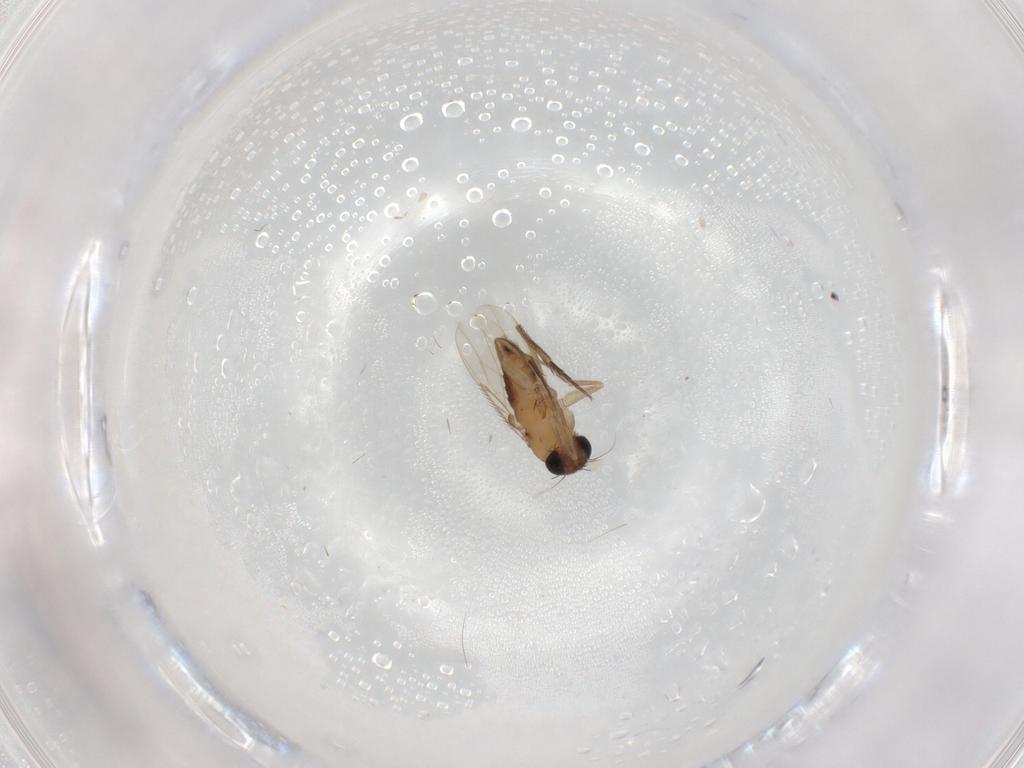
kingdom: Animalia
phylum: Arthropoda
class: Insecta
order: Diptera
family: Phoridae
